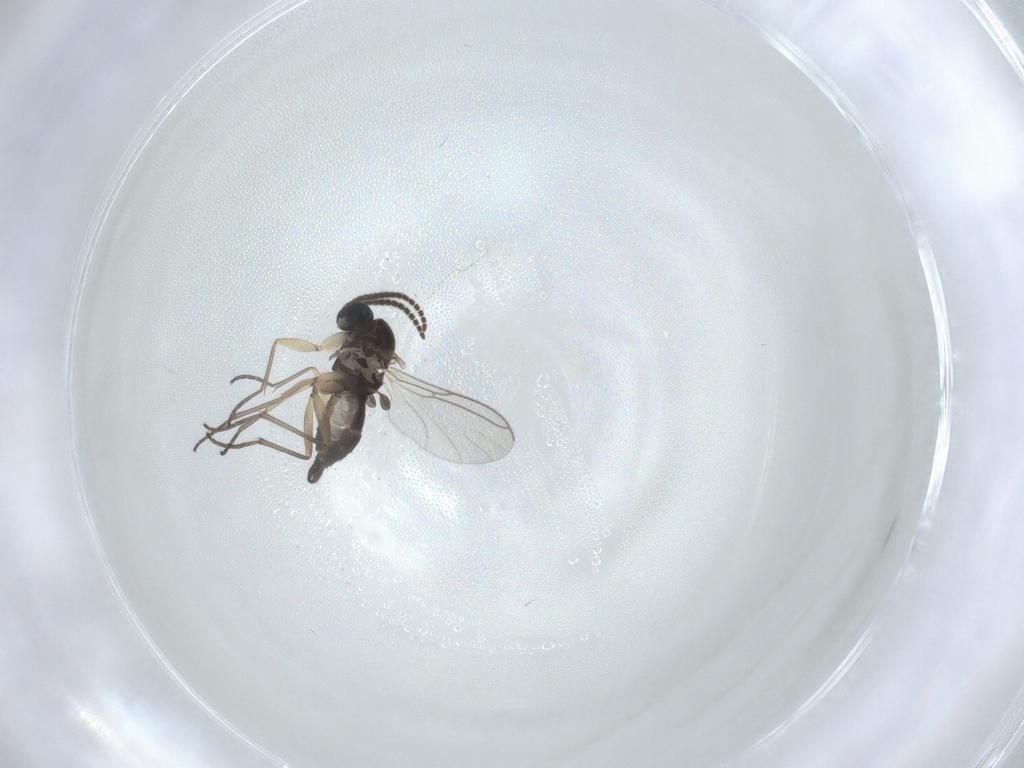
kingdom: Animalia
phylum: Arthropoda
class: Insecta
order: Diptera
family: Sciaridae
